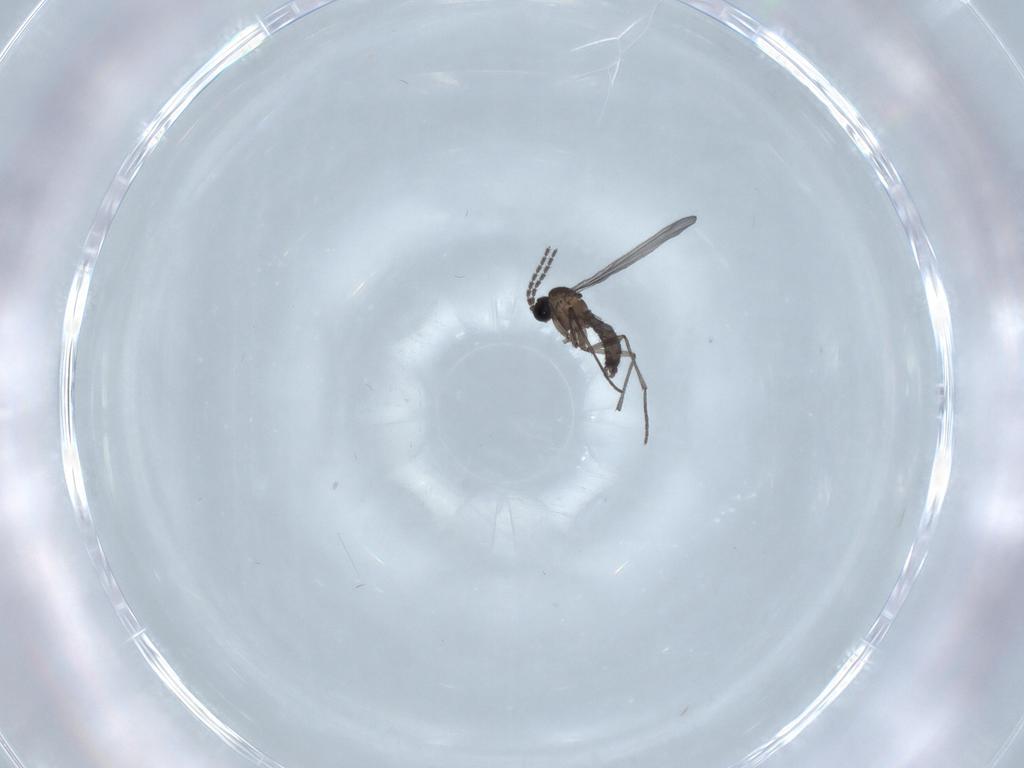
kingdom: Animalia
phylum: Arthropoda
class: Insecta
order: Diptera
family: Sciaridae
